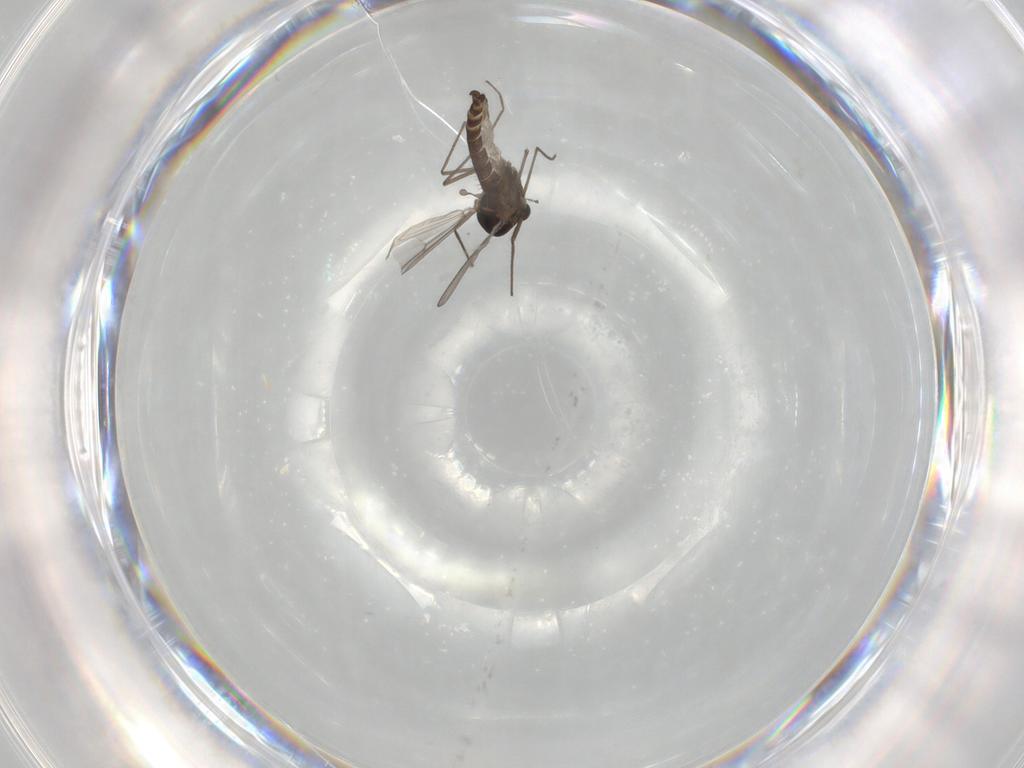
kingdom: Animalia
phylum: Arthropoda
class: Insecta
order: Diptera
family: Chironomidae
